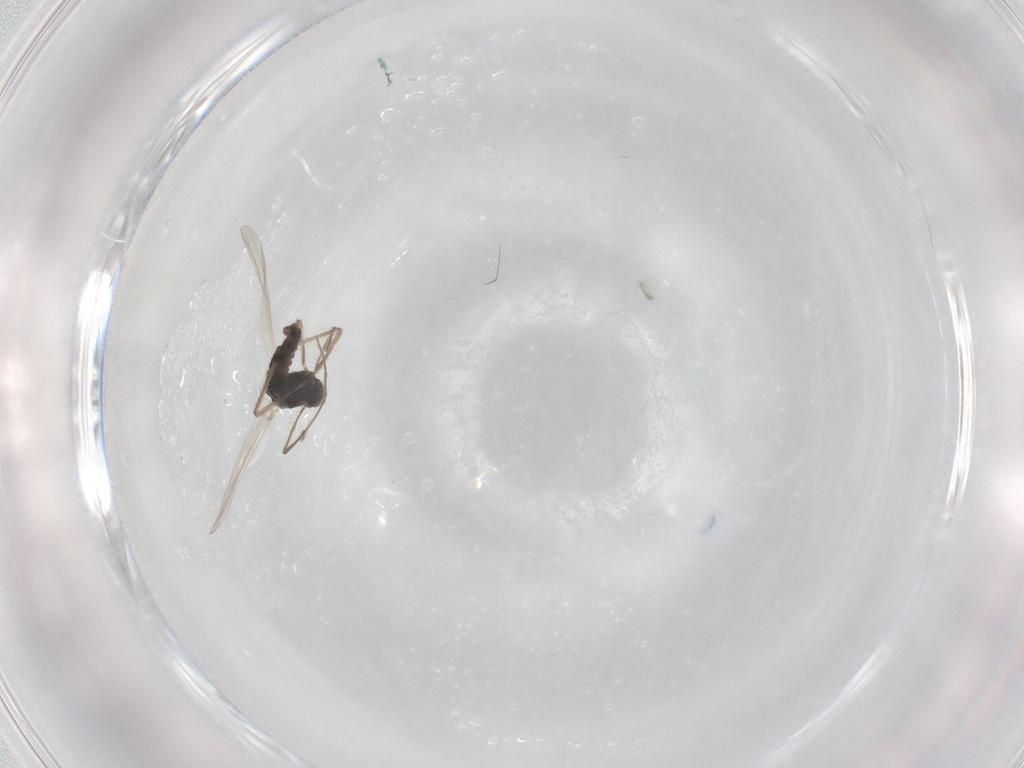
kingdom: Animalia
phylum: Arthropoda
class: Insecta
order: Diptera
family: Chironomidae
